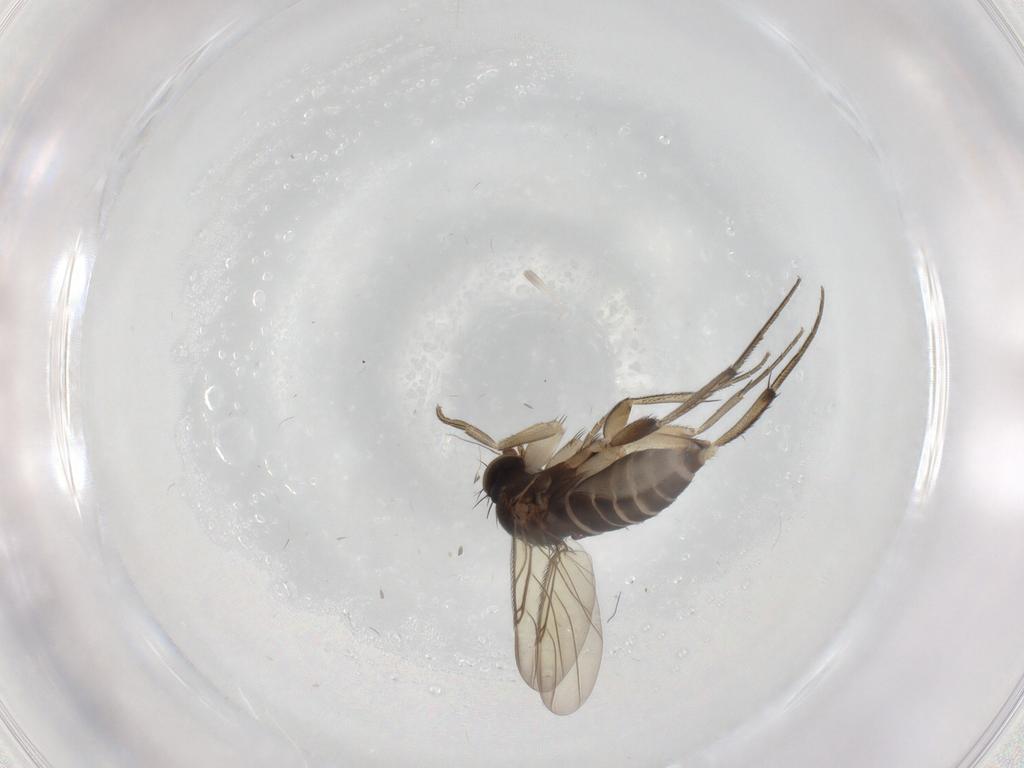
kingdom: Animalia
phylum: Arthropoda
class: Insecta
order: Diptera
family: Phoridae
